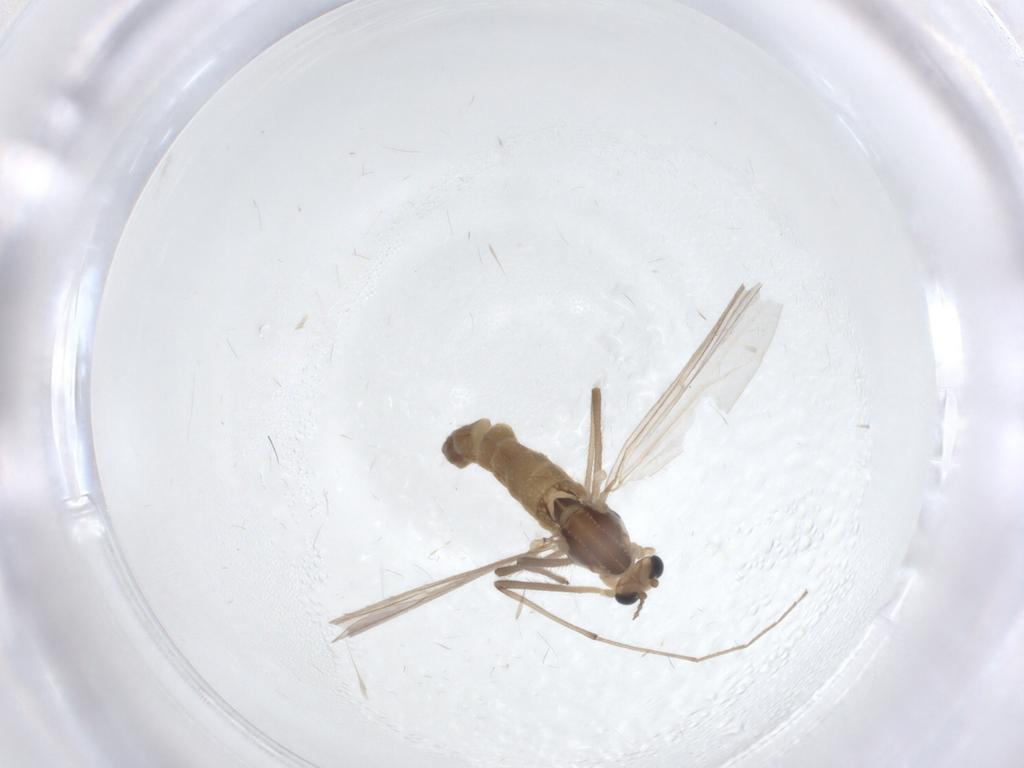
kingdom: Animalia
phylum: Arthropoda
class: Insecta
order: Diptera
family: Chironomidae
